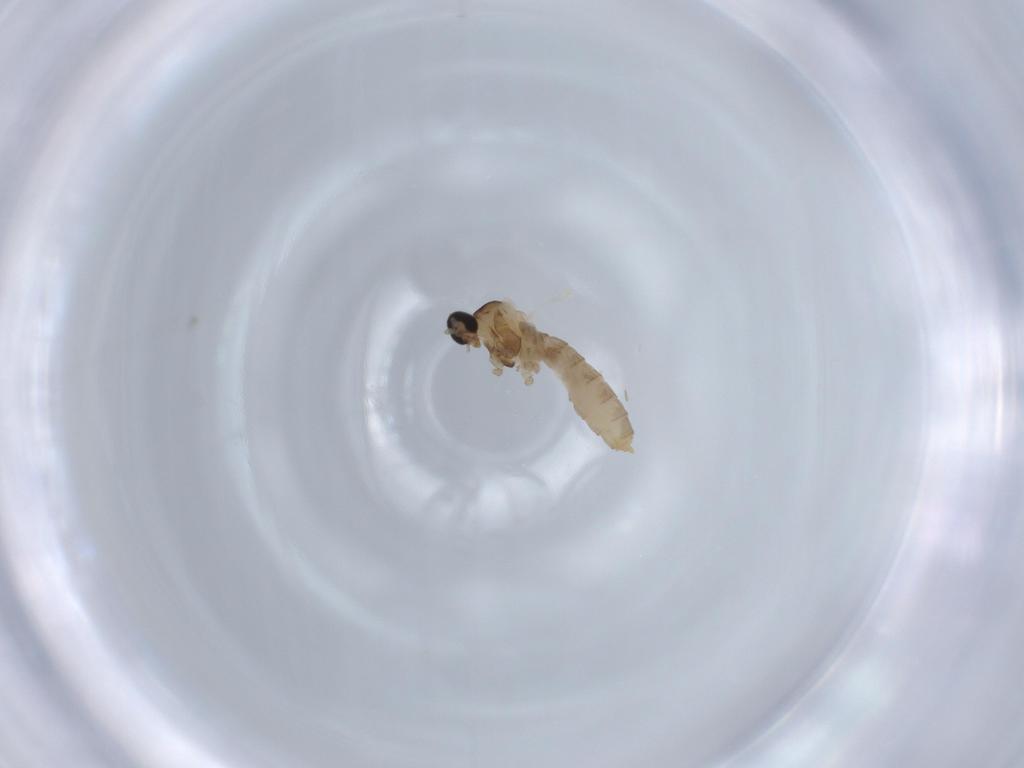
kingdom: Animalia
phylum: Arthropoda
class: Insecta
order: Diptera
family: Cecidomyiidae
